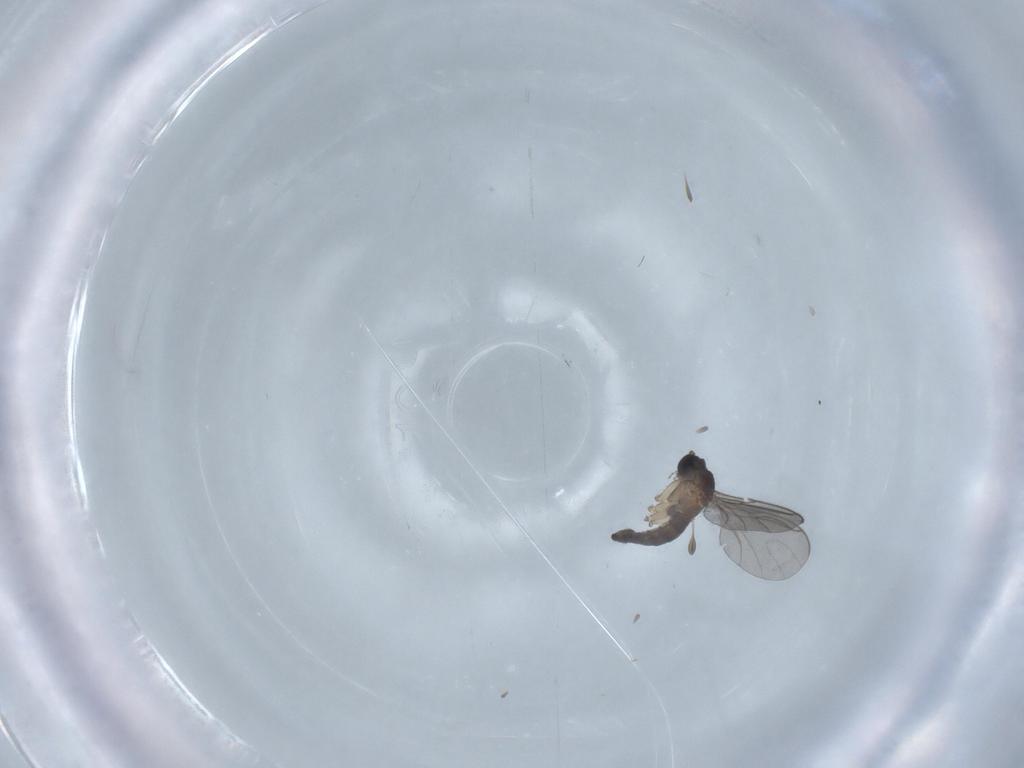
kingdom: Animalia
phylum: Arthropoda
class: Insecta
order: Diptera
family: Sciaridae
